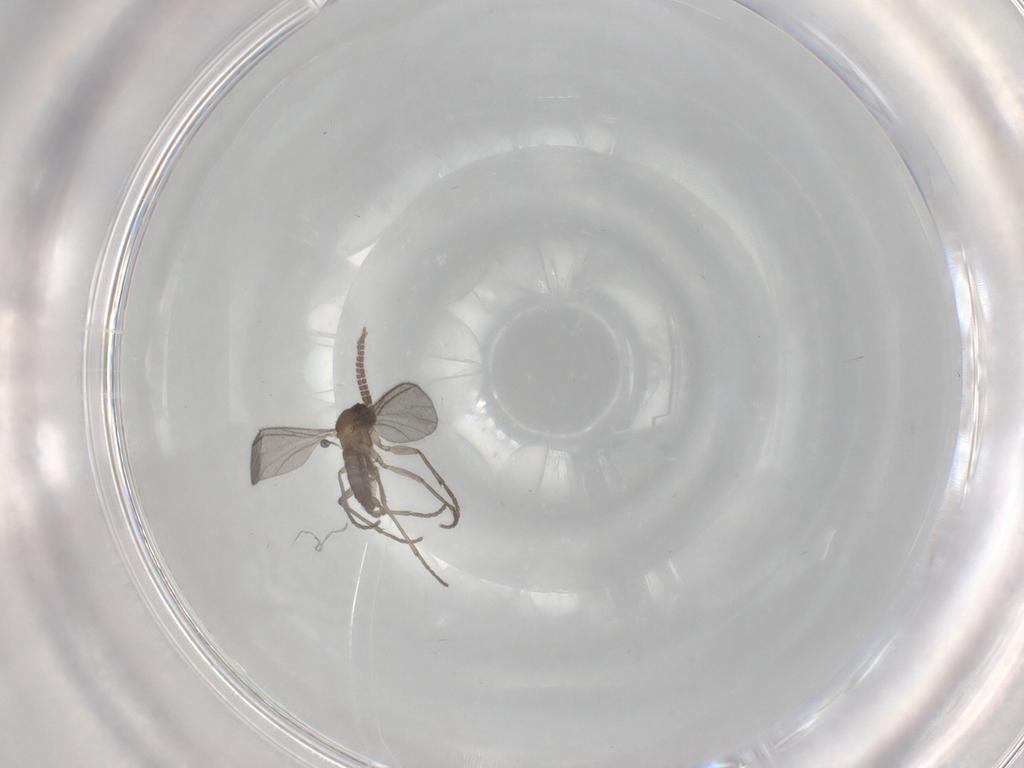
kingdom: Animalia
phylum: Arthropoda
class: Insecta
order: Diptera
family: Sciaridae
